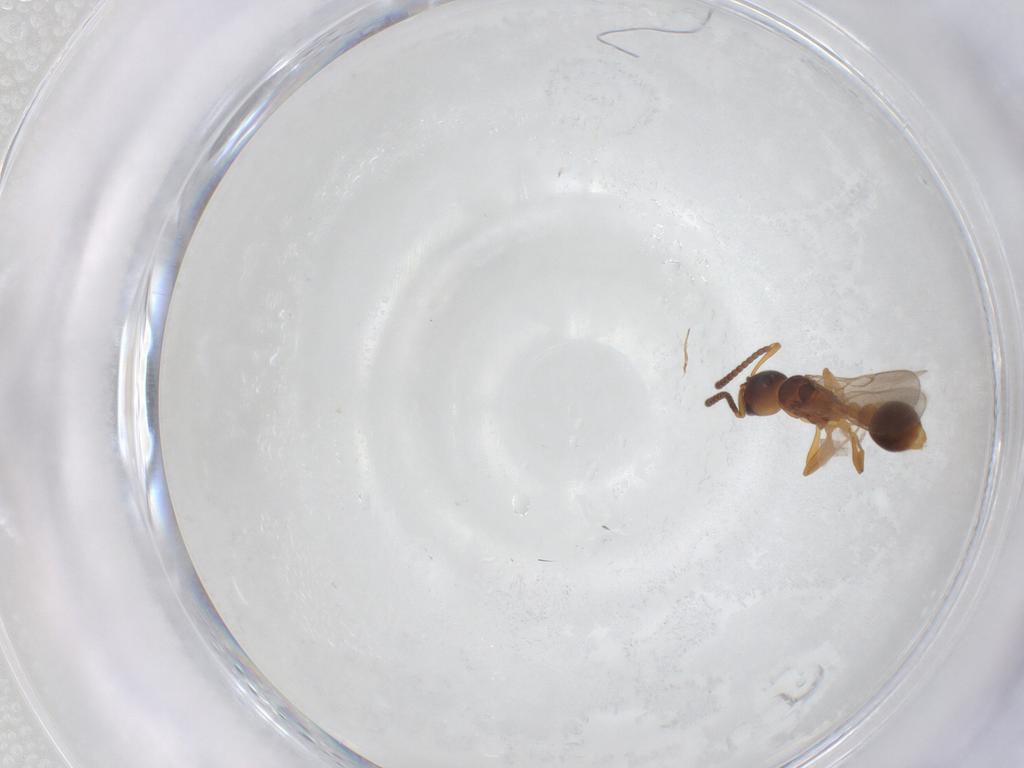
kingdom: Animalia
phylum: Arthropoda
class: Insecta
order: Hymenoptera
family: Formicidae
